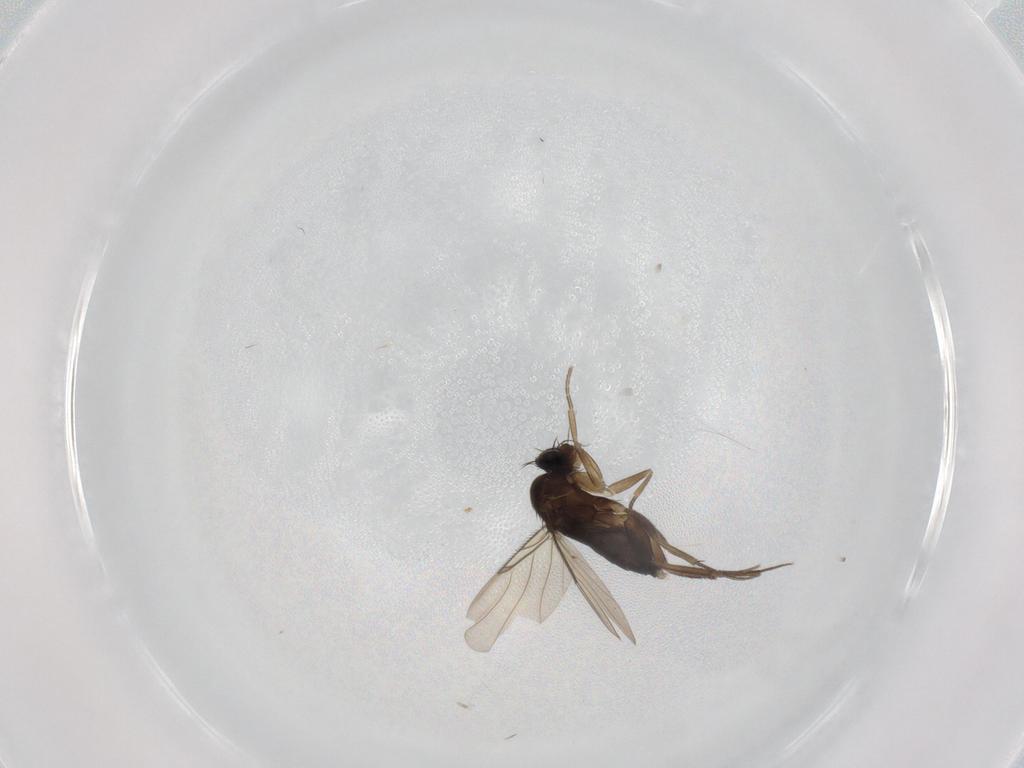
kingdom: Animalia
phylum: Arthropoda
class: Insecta
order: Diptera
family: Phoridae
